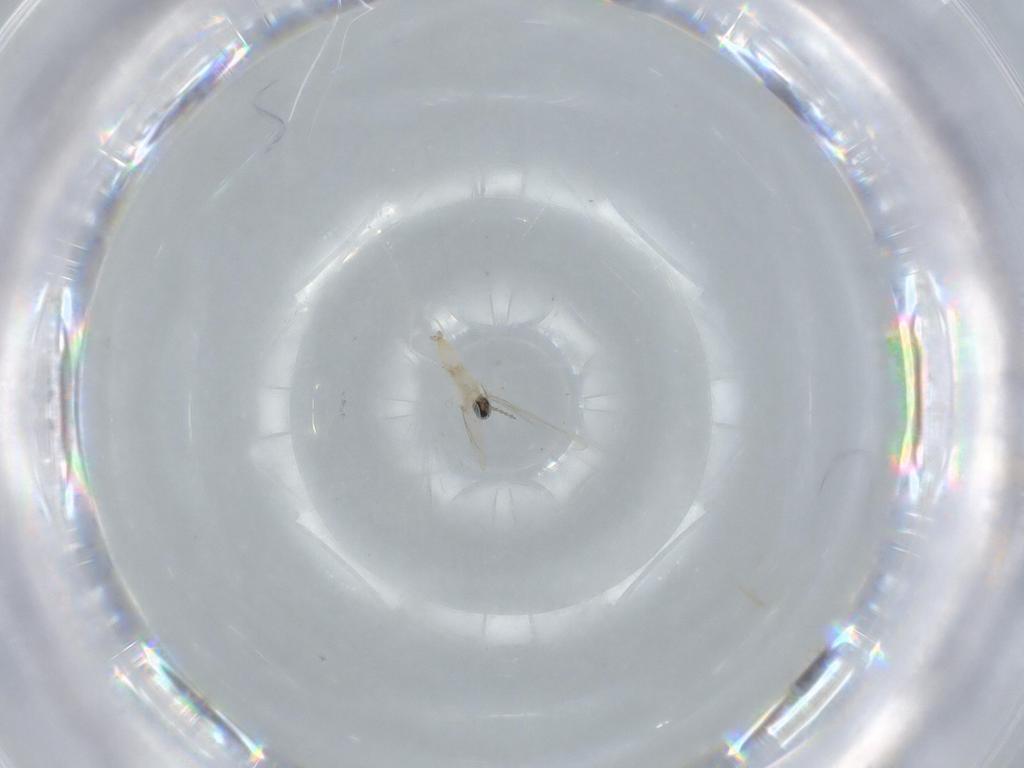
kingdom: Animalia
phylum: Arthropoda
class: Insecta
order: Diptera
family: Cecidomyiidae
